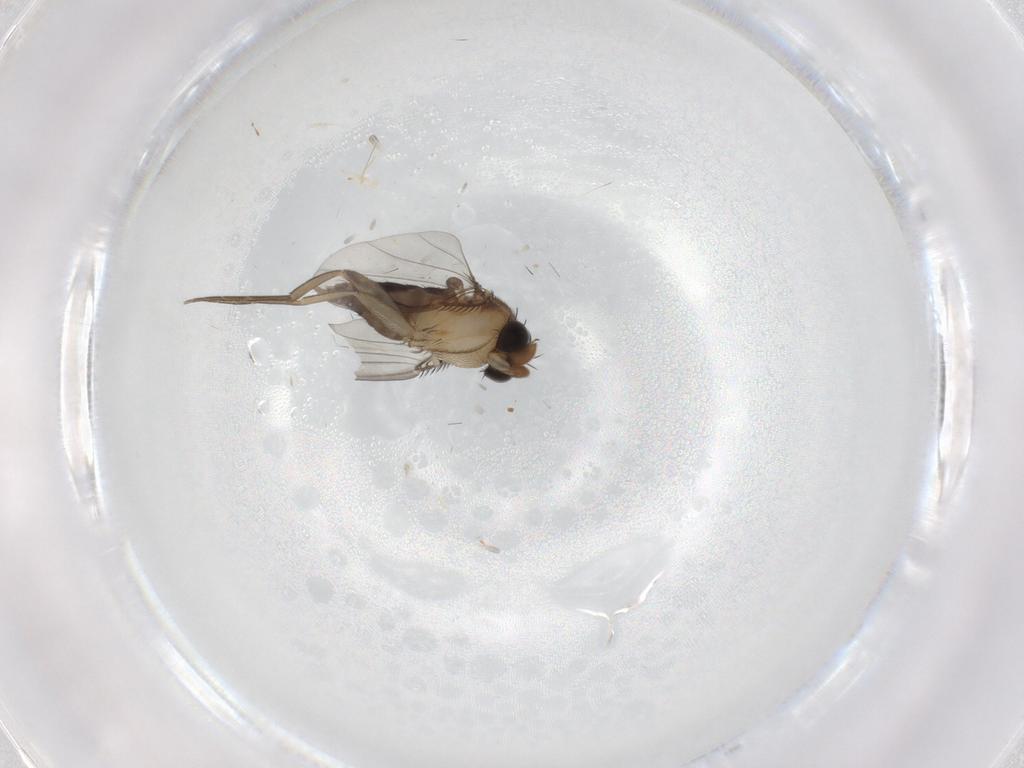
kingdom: Animalia
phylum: Arthropoda
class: Insecta
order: Diptera
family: Phoridae
